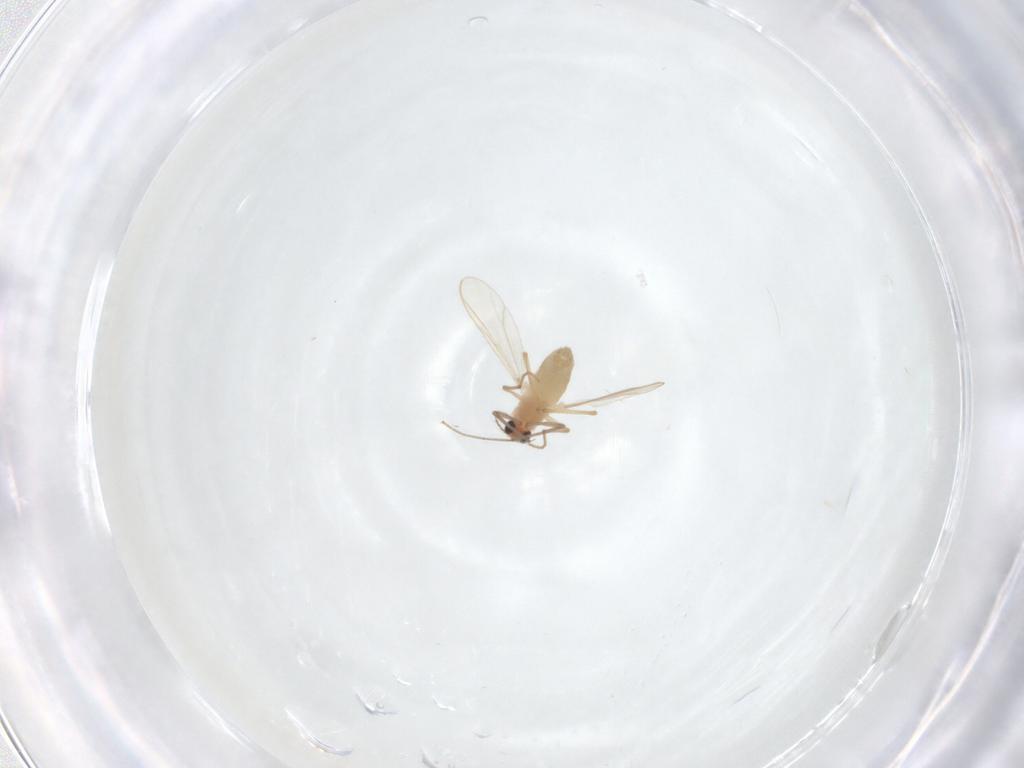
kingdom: Animalia
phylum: Arthropoda
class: Insecta
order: Diptera
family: Chironomidae
